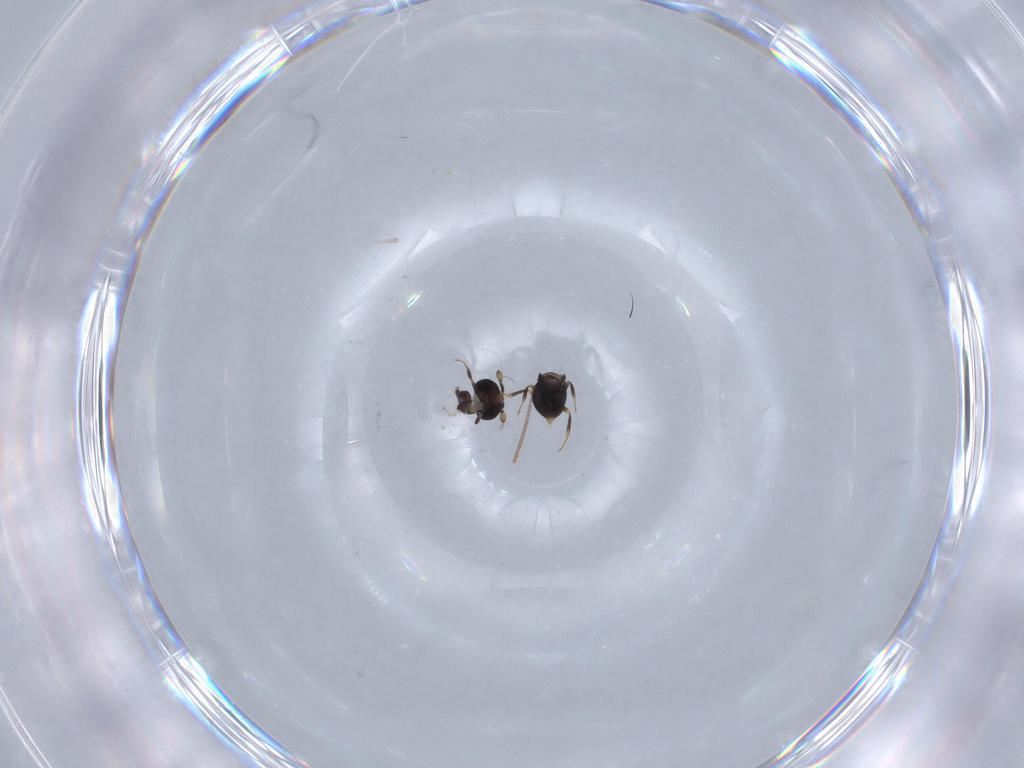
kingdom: Animalia
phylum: Arthropoda
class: Insecta
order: Hymenoptera
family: Scelionidae
